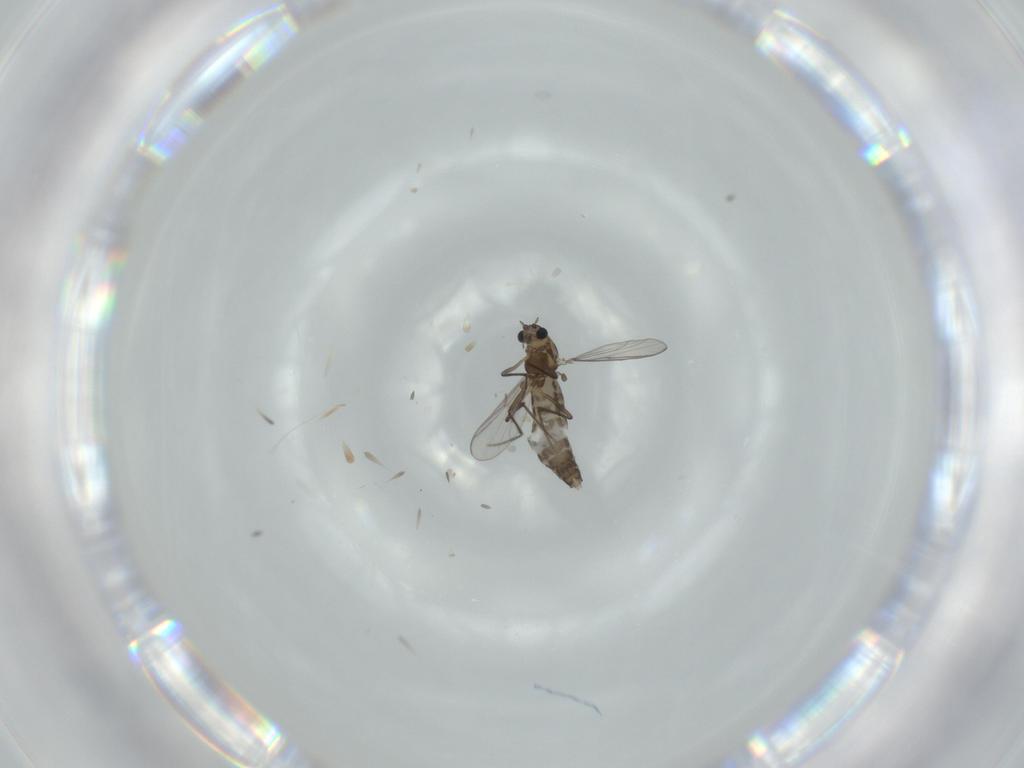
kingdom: Animalia
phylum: Arthropoda
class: Insecta
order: Diptera
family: Chironomidae
